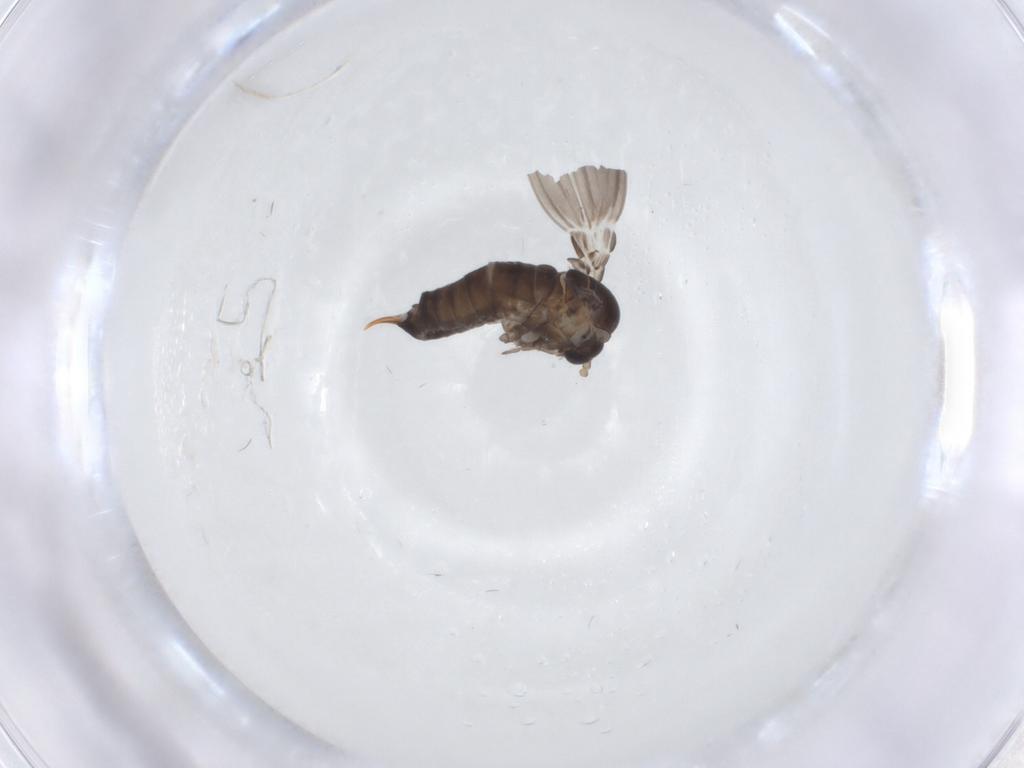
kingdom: Animalia
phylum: Arthropoda
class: Insecta
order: Diptera
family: Psychodidae
